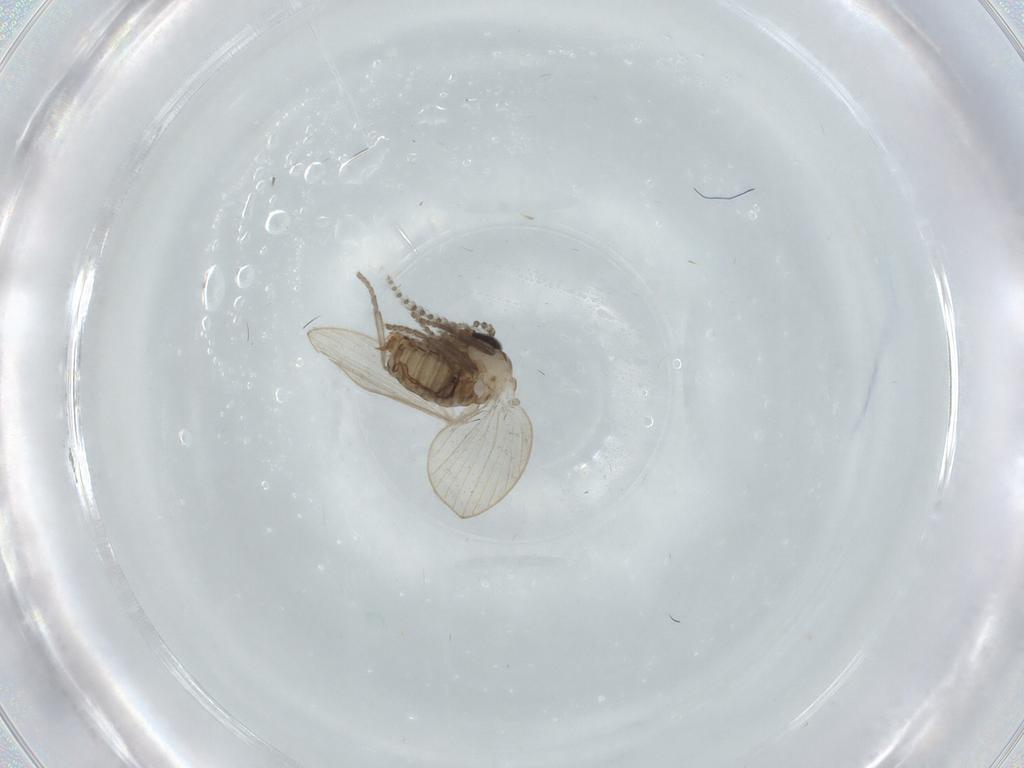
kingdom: Animalia
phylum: Arthropoda
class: Insecta
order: Diptera
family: Psychodidae
